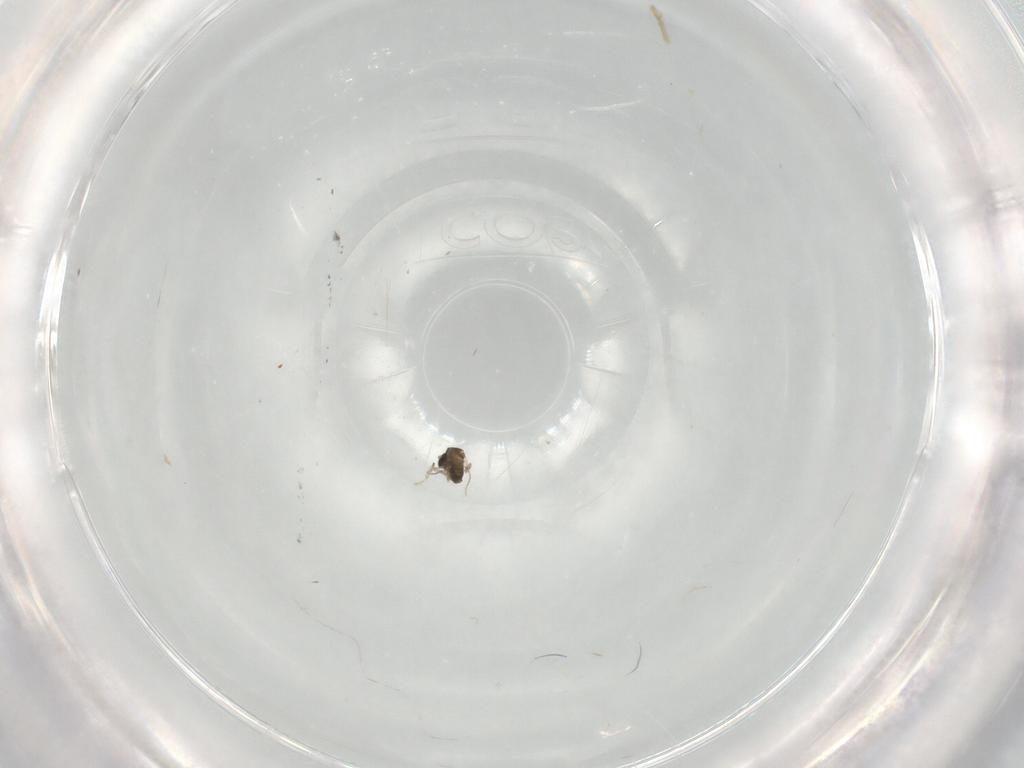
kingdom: Animalia
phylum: Arthropoda
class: Insecta
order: Diptera
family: Cecidomyiidae
